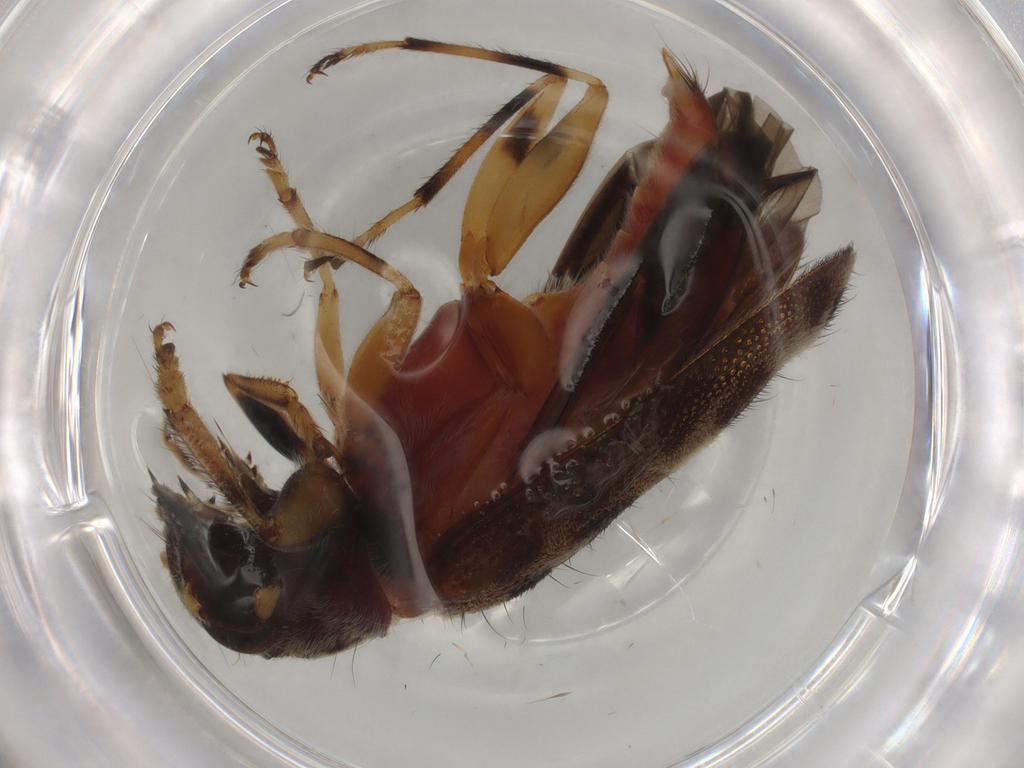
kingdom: Animalia
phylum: Arthropoda
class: Insecta
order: Coleoptera
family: Cleridae
